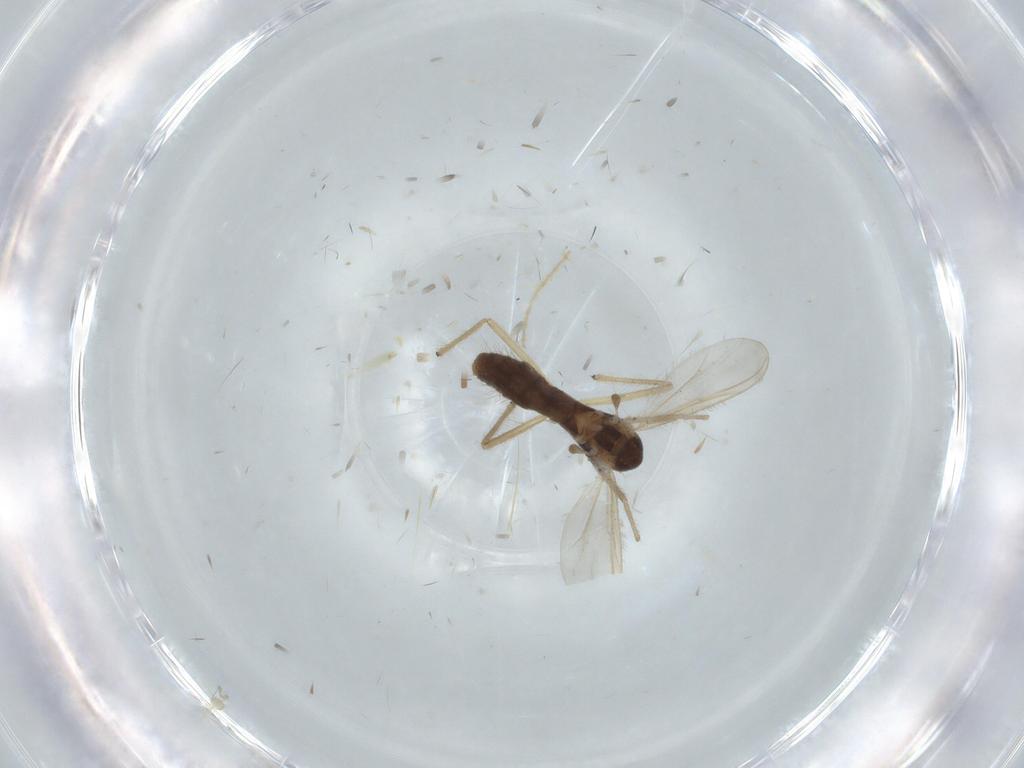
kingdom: Animalia
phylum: Arthropoda
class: Insecta
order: Diptera
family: Chironomidae
